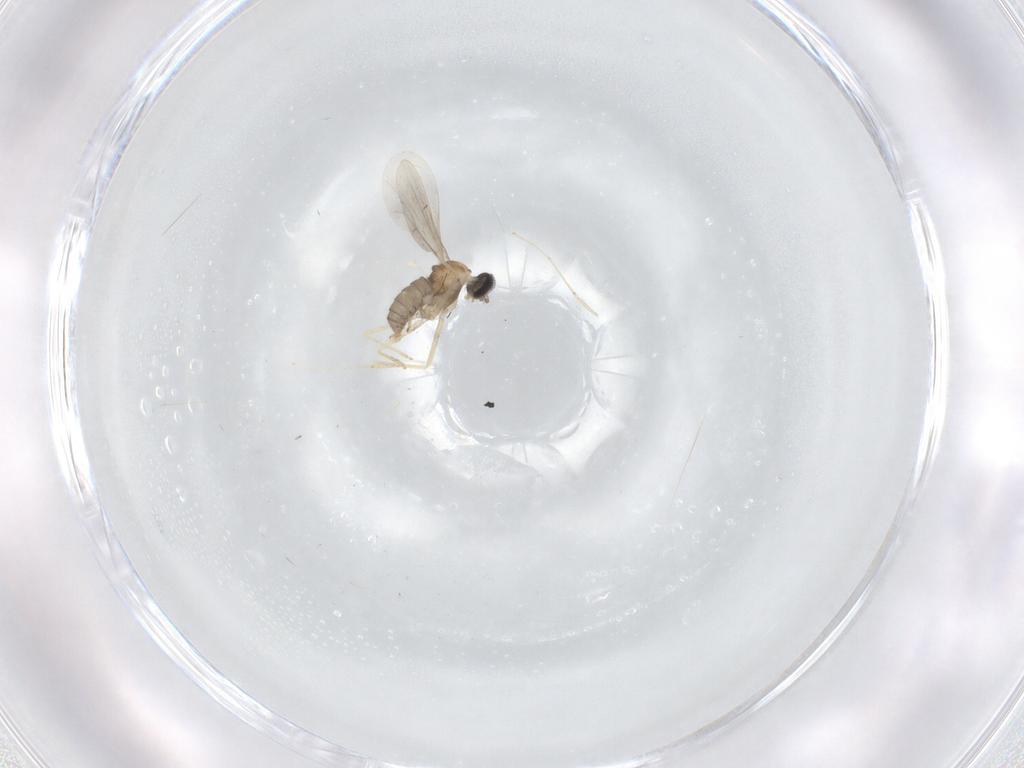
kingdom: Animalia
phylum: Arthropoda
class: Insecta
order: Diptera
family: Cecidomyiidae
